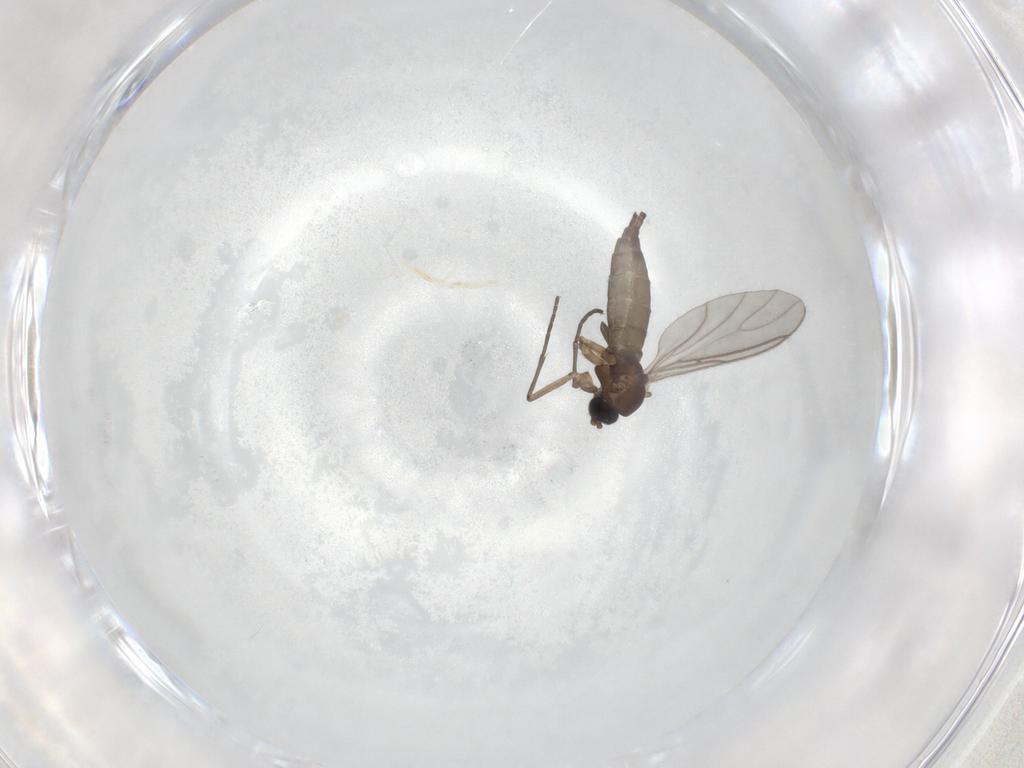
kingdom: Animalia
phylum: Arthropoda
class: Insecta
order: Diptera
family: Sciaridae
